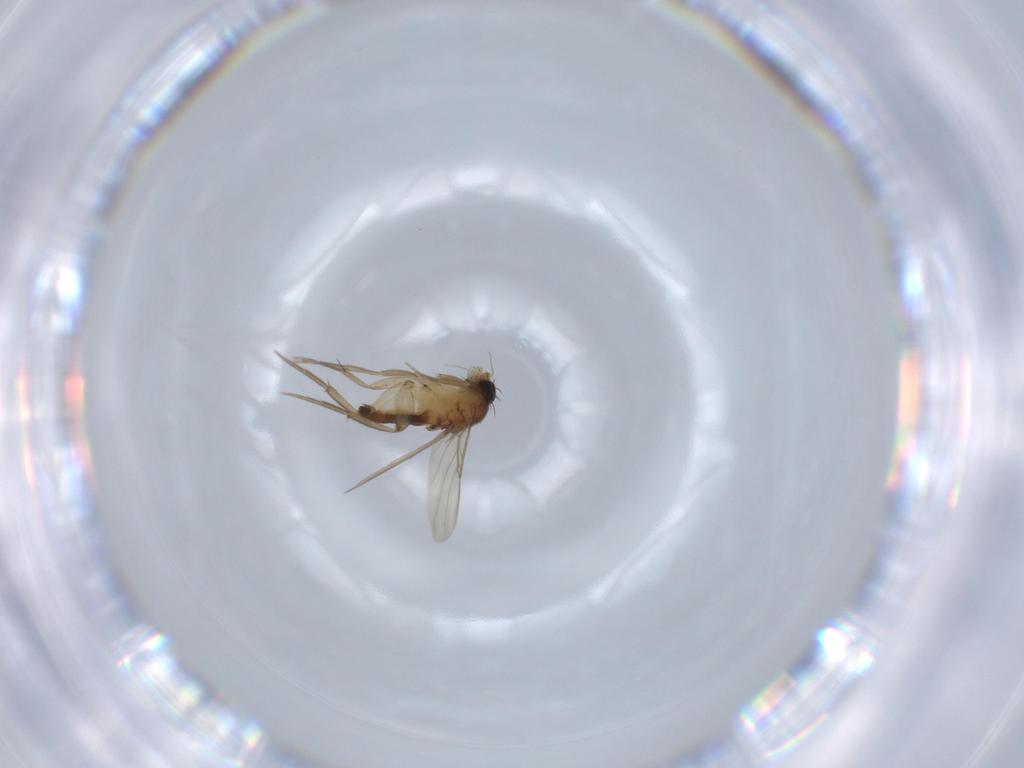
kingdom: Animalia
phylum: Arthropoda
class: Insecta
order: Diptera
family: Phoridae
